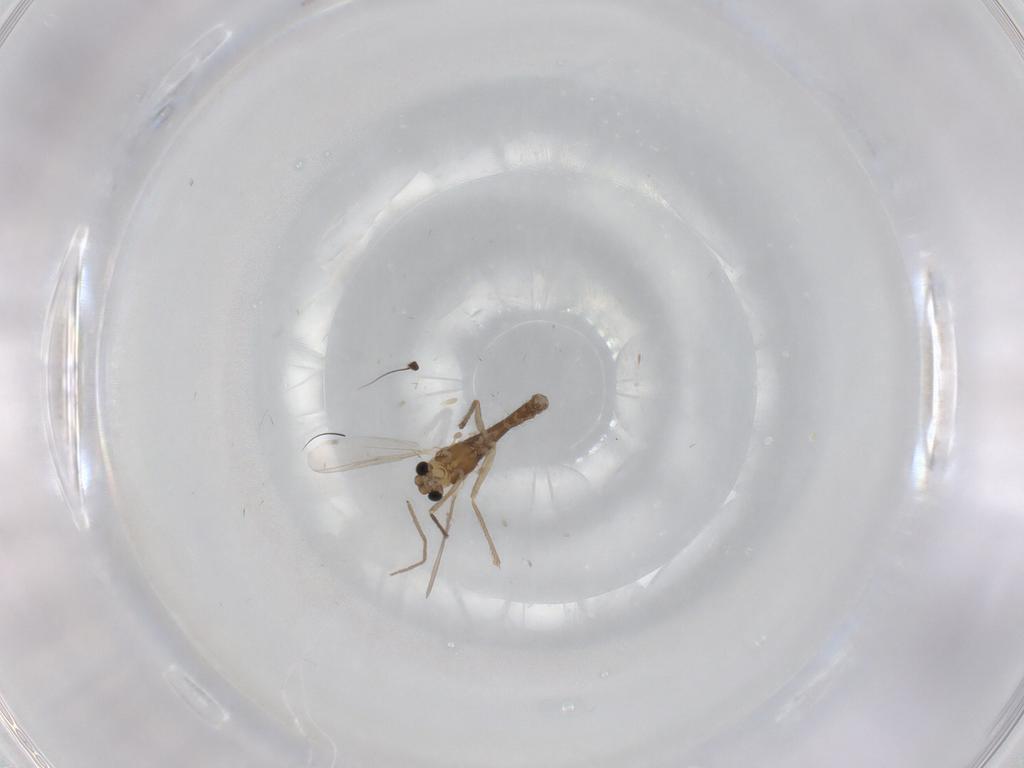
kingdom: Animalia
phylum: Arthropoda
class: Insecta
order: Diptera
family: Chironomidae
